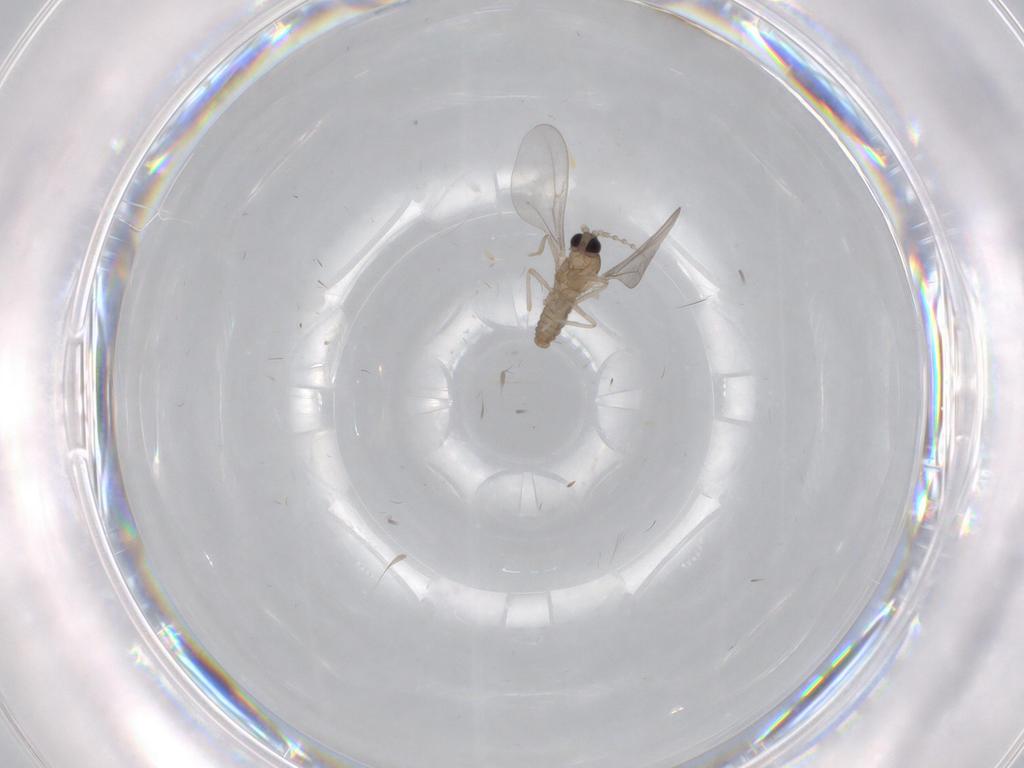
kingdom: Animalia
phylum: Arthropoda
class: Insecta
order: Diptera
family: Cecidomyiidae
